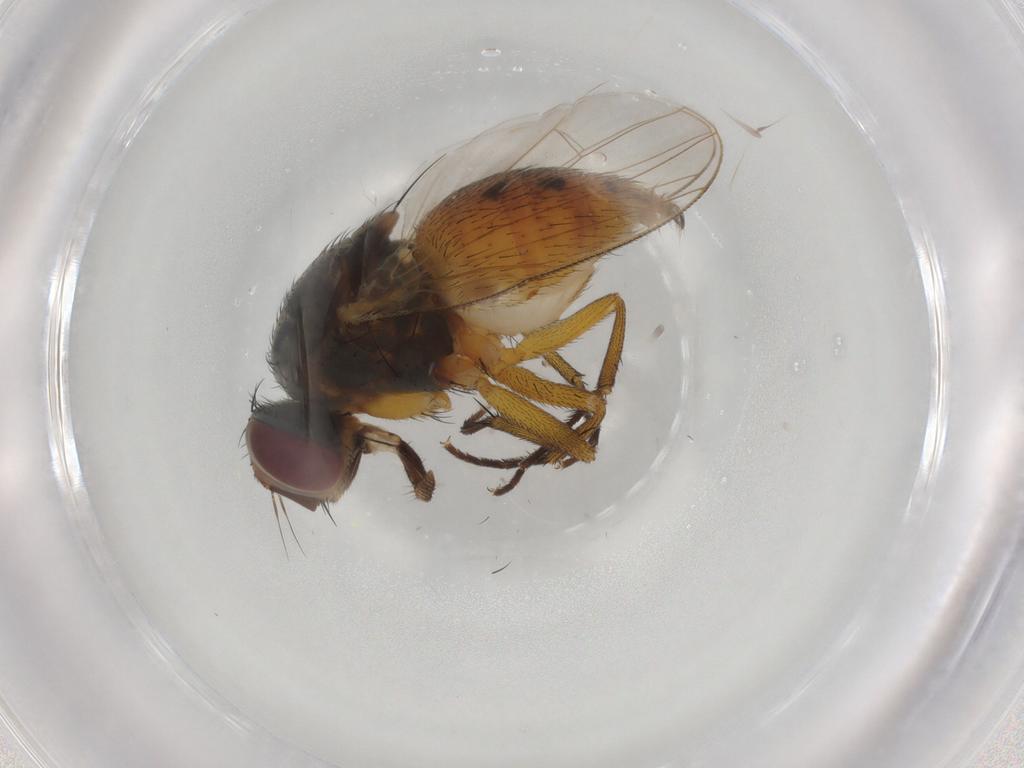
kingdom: Animalia
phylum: Arthropoda
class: Insecta
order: Diptera
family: Muscidae
